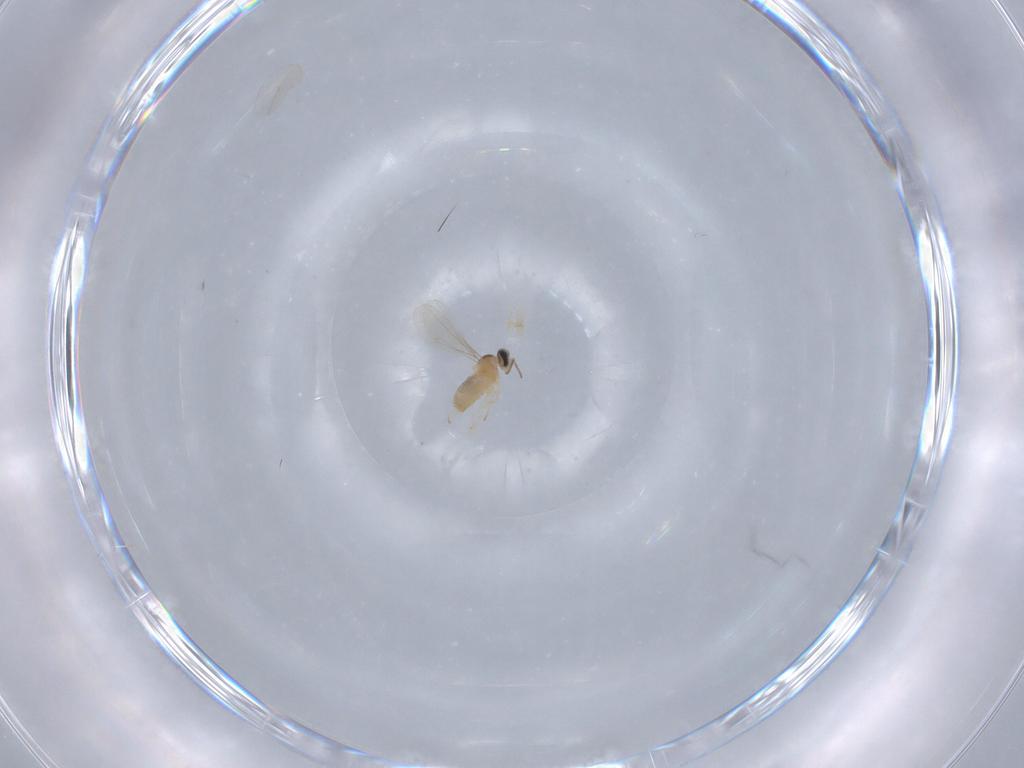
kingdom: Animalia
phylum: Arthropoda
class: Insecta
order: Diptera
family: Cecidomyiidae
